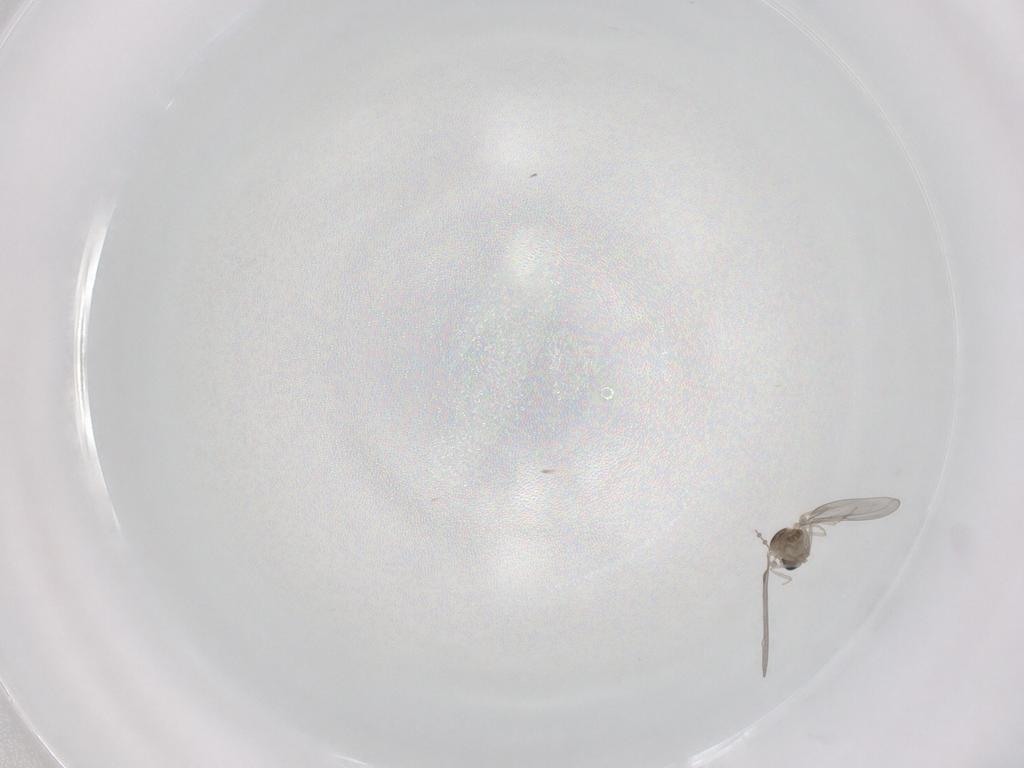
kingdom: Animalia
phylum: Arthropoda
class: Insecta
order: Diptera
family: Cecidomyiidae
